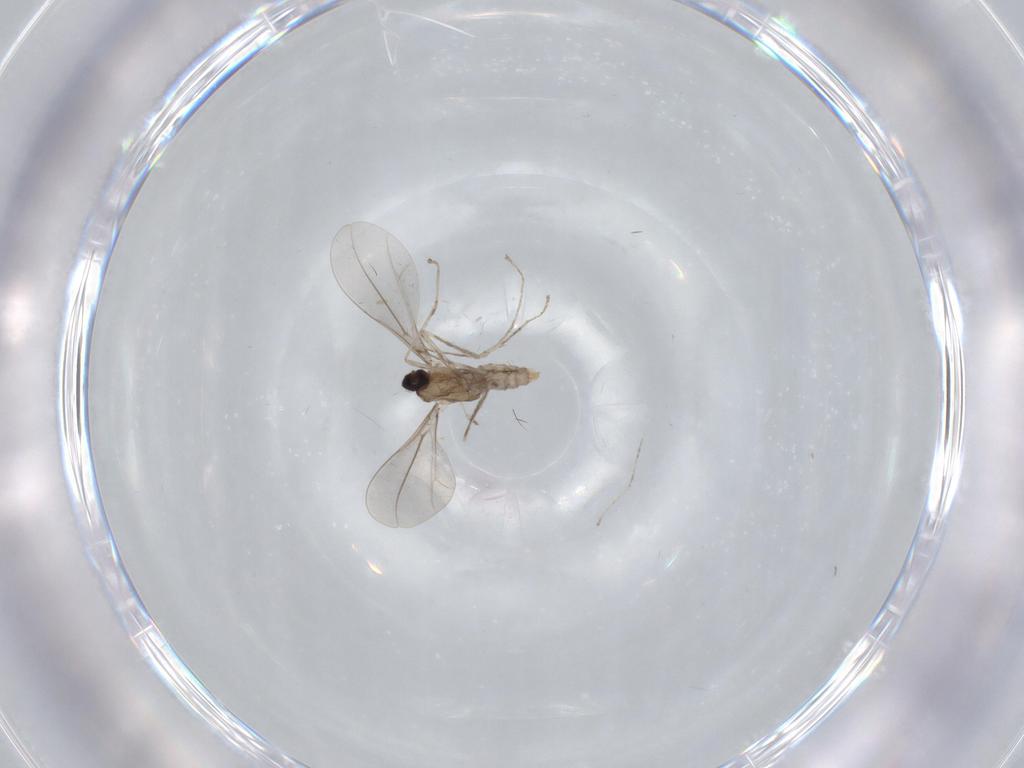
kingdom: Animalia
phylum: Arthropoda
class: Insecta
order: Diptera
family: Cecidomyiidae
